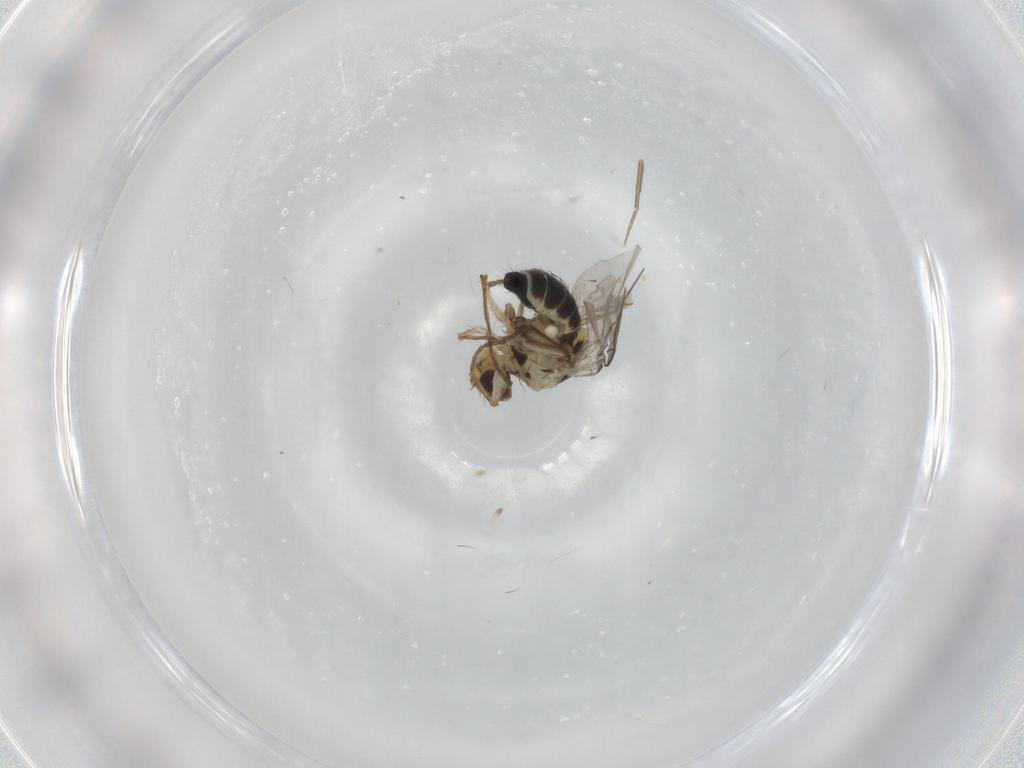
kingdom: Animalia
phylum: Arthropoda
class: Insecta
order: Diptera
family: Agromyzidae
